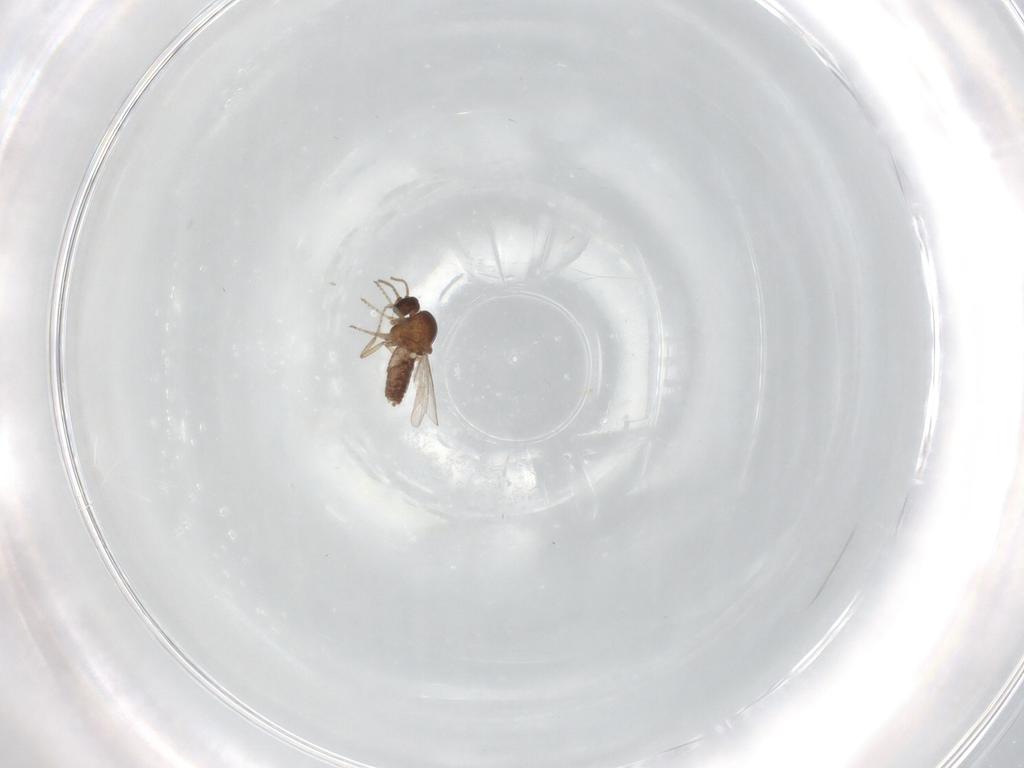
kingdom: Animalia
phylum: Arthropoda
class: Insecta
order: Diptera
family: Ceratopogonidae
